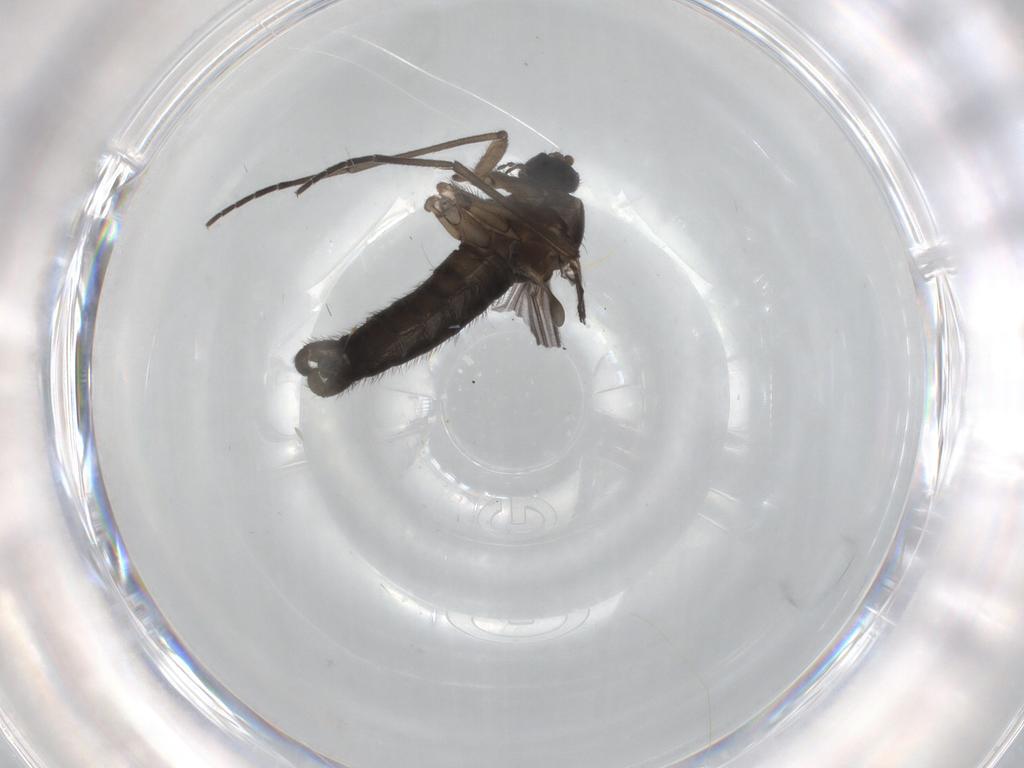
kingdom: Animalia
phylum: Arthropoda
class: Insecta
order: Diptera
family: Sciaridae
